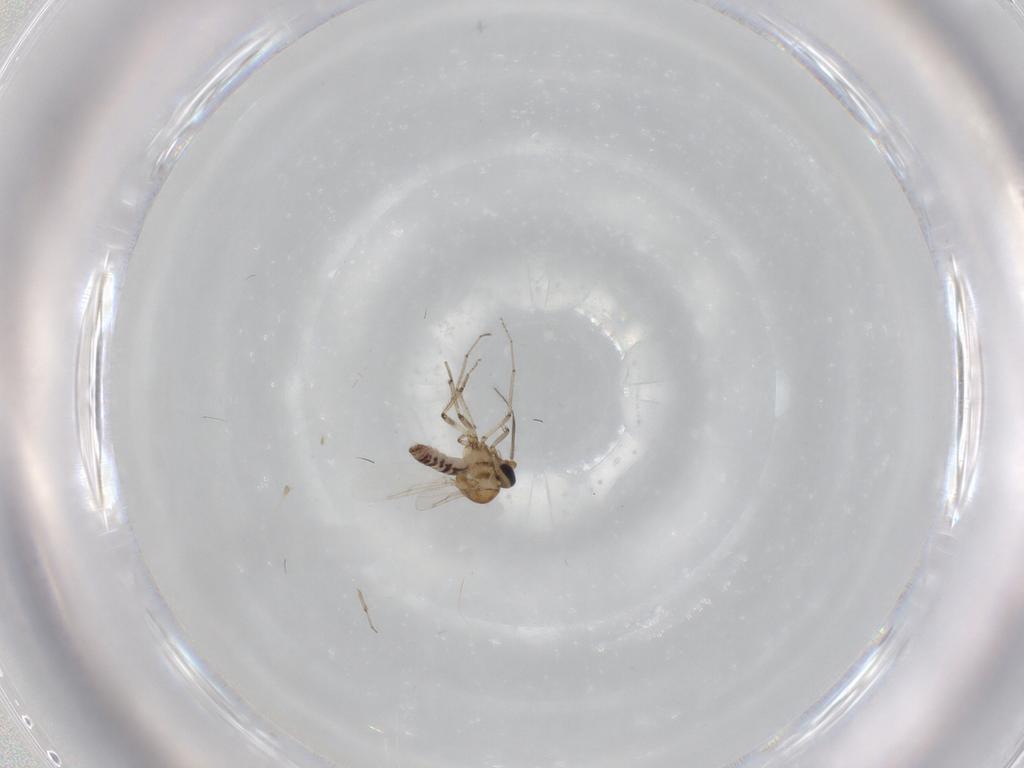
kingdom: Animalia
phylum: Arthropoda
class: Insecta
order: Diptera
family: Ceratopogonidae
